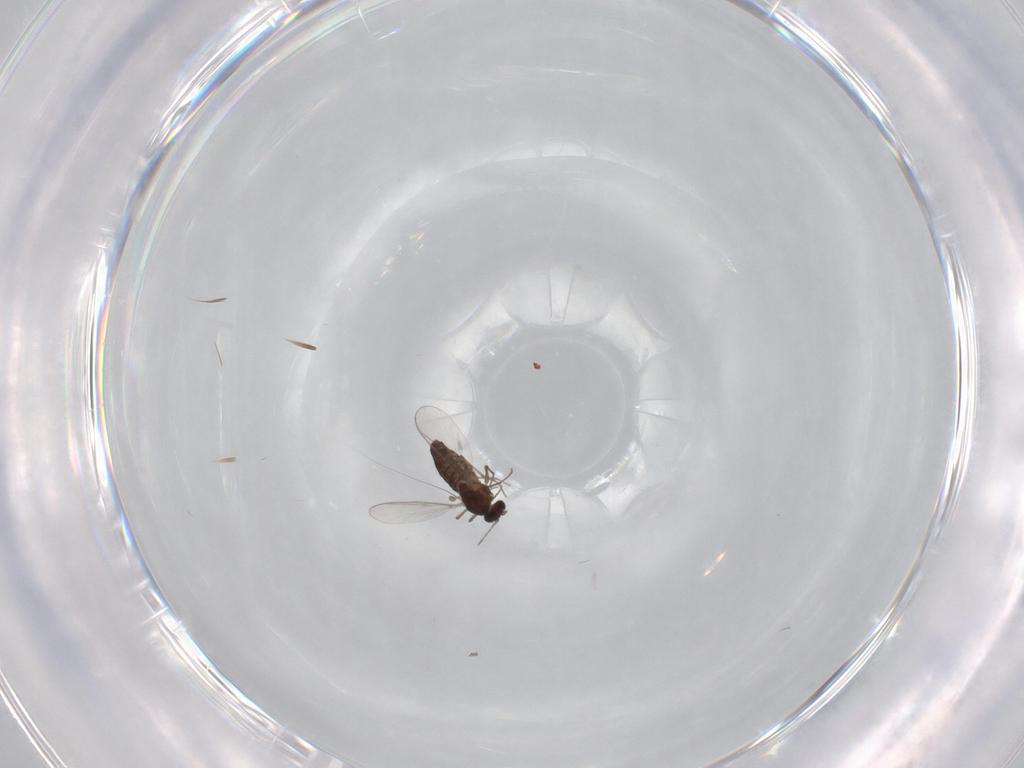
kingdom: Animalia
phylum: Arthropoda
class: Insecta
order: Diptera
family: Chironomidae
